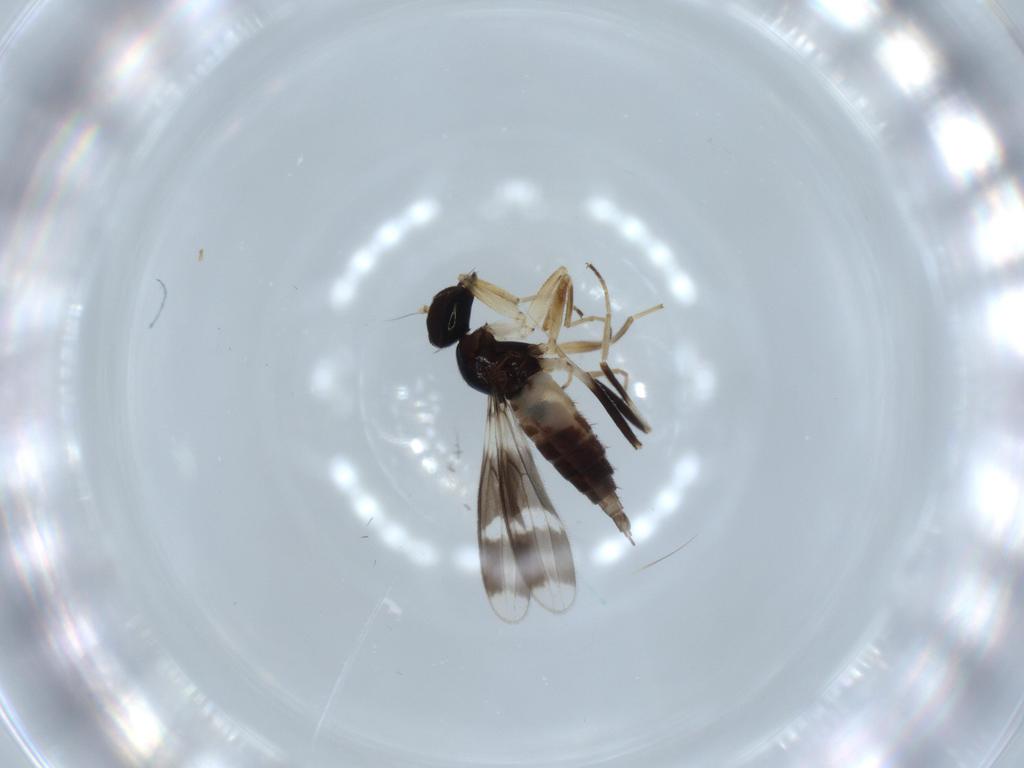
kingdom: Animalia
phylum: Arthropoda
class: Insecta
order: Diptera
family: Hybotidae
